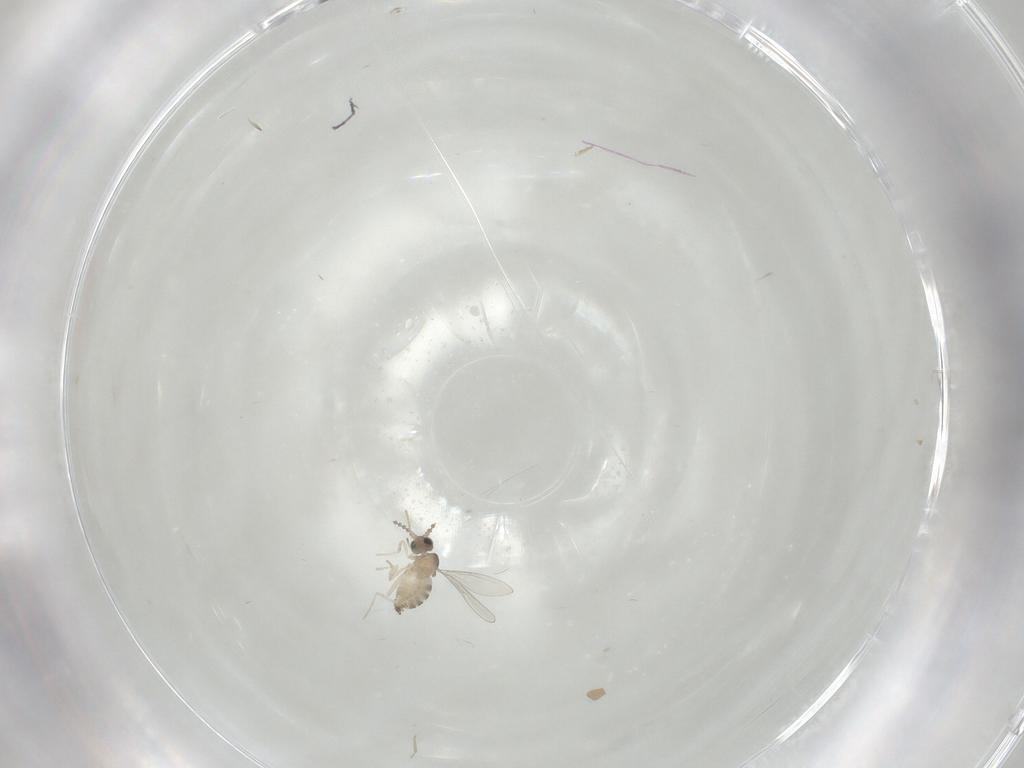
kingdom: Animalia
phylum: Arthropoda
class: Insecta
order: Diptera
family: Cecidomyiidae
